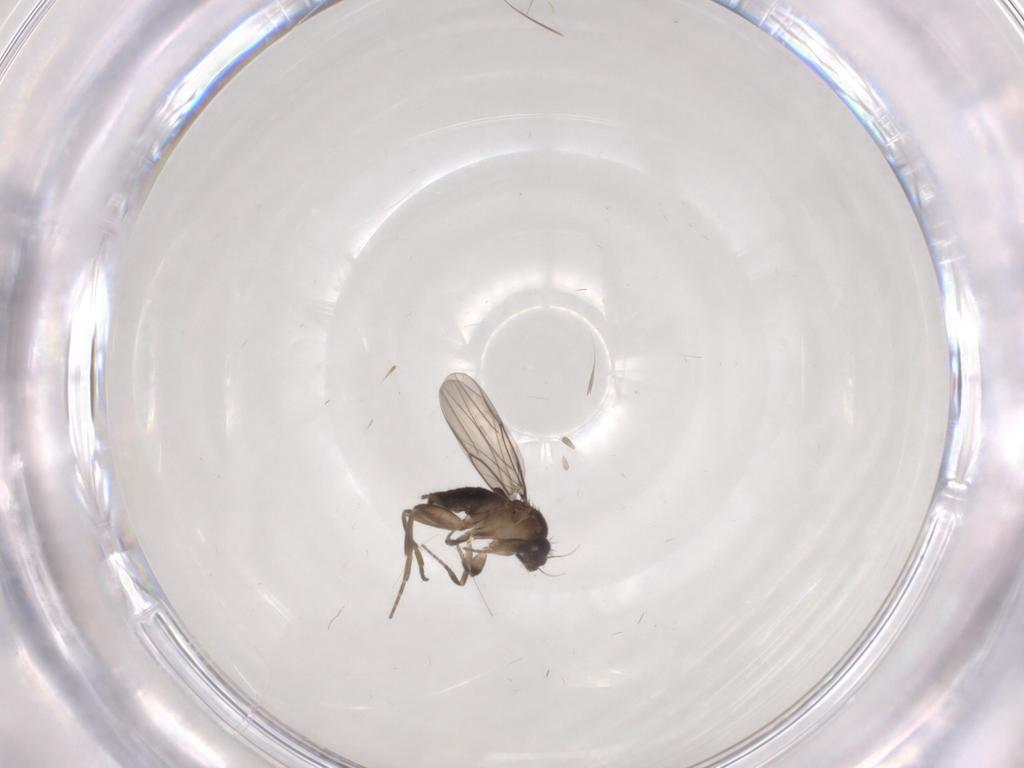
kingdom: Animalia
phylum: Arthropoda
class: Insecta
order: Diptera
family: Phoridae
